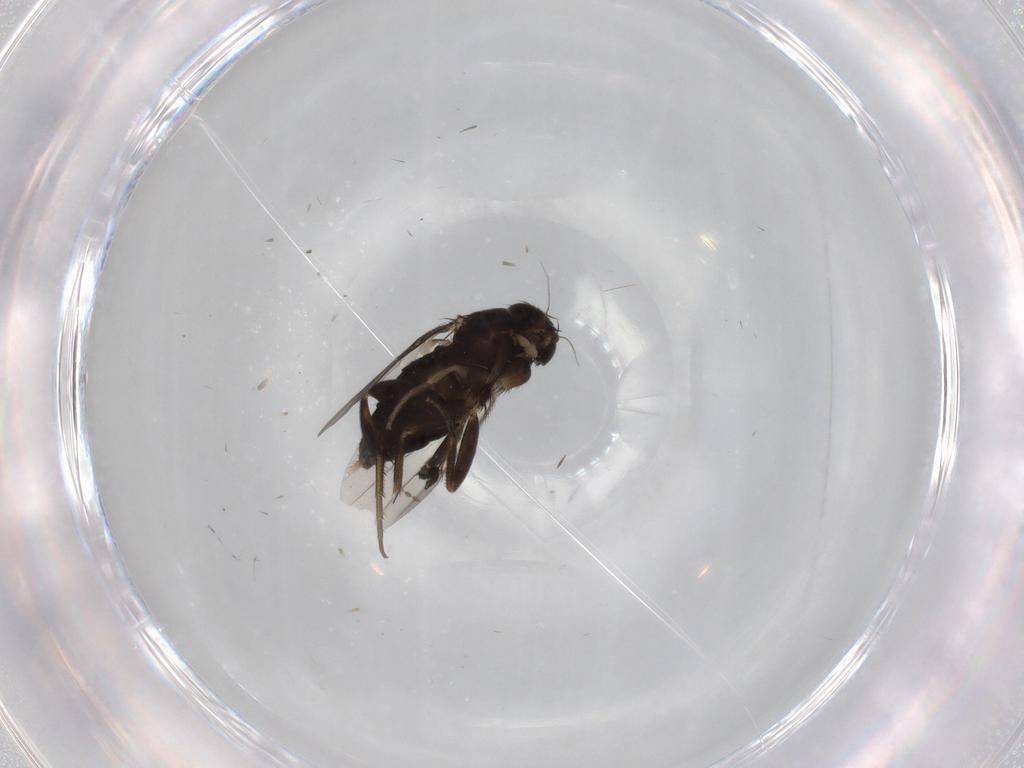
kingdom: Animalia
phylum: Arthropoda
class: Insecta
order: Diptera
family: Phoridae
